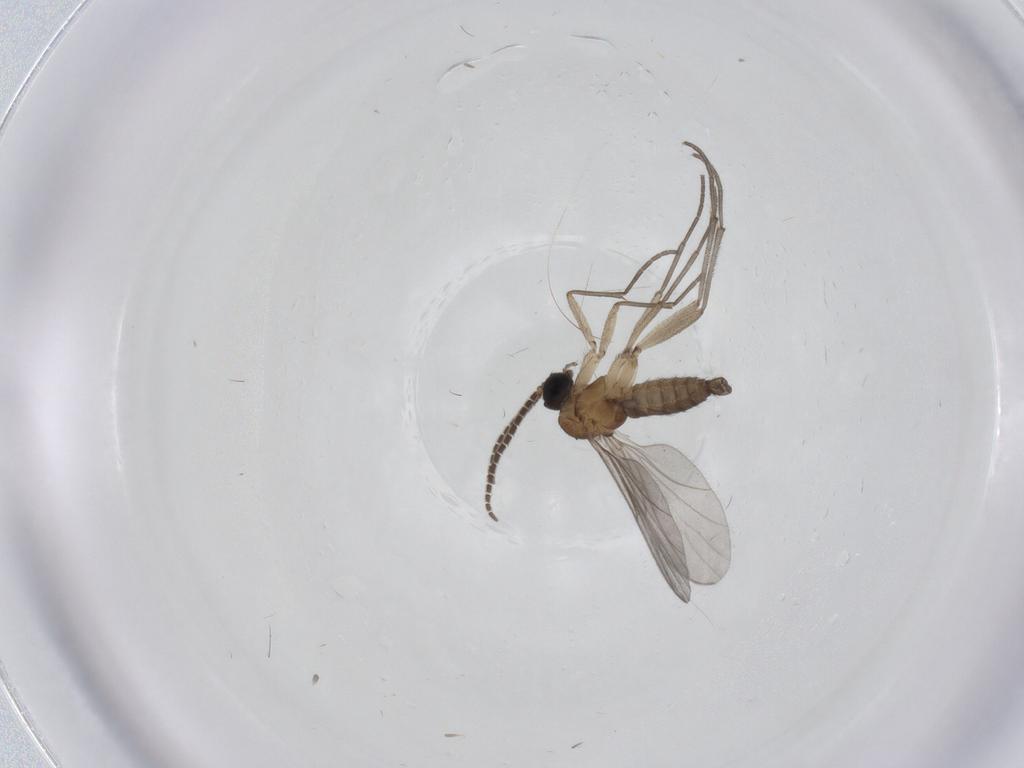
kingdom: Animalia
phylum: Arthropoda
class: Insecta
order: Diptera
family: Sciaridae
